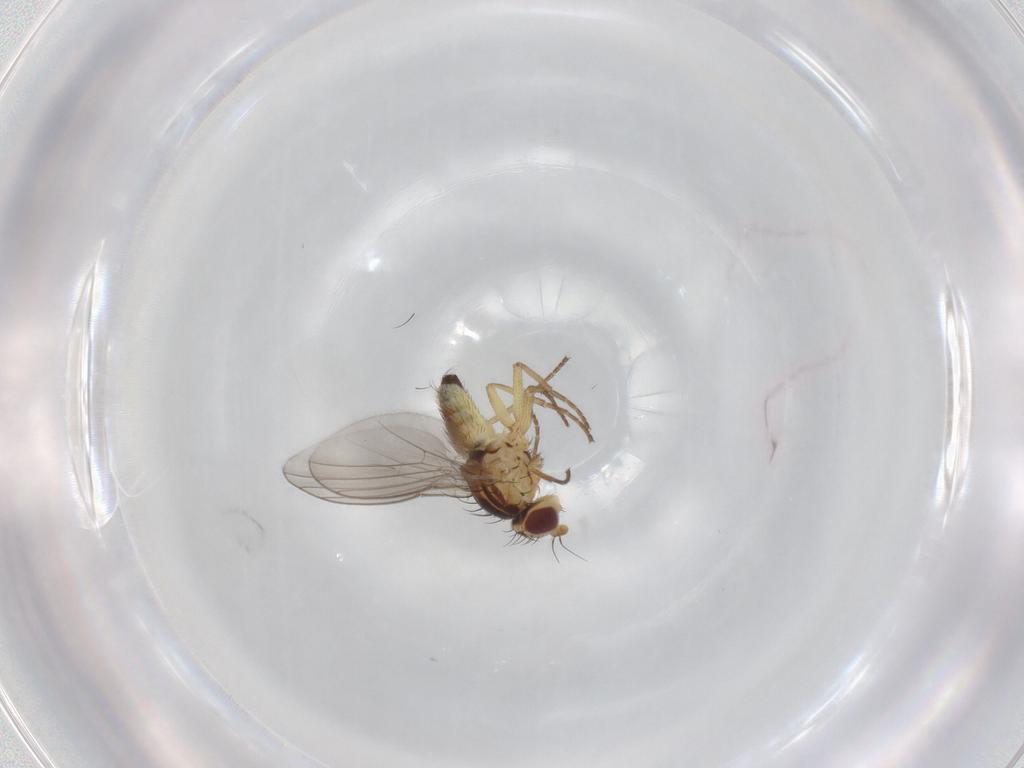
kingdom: Animalia
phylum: Arthropoda
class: Insecta
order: Diptera
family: Agromyzidae
